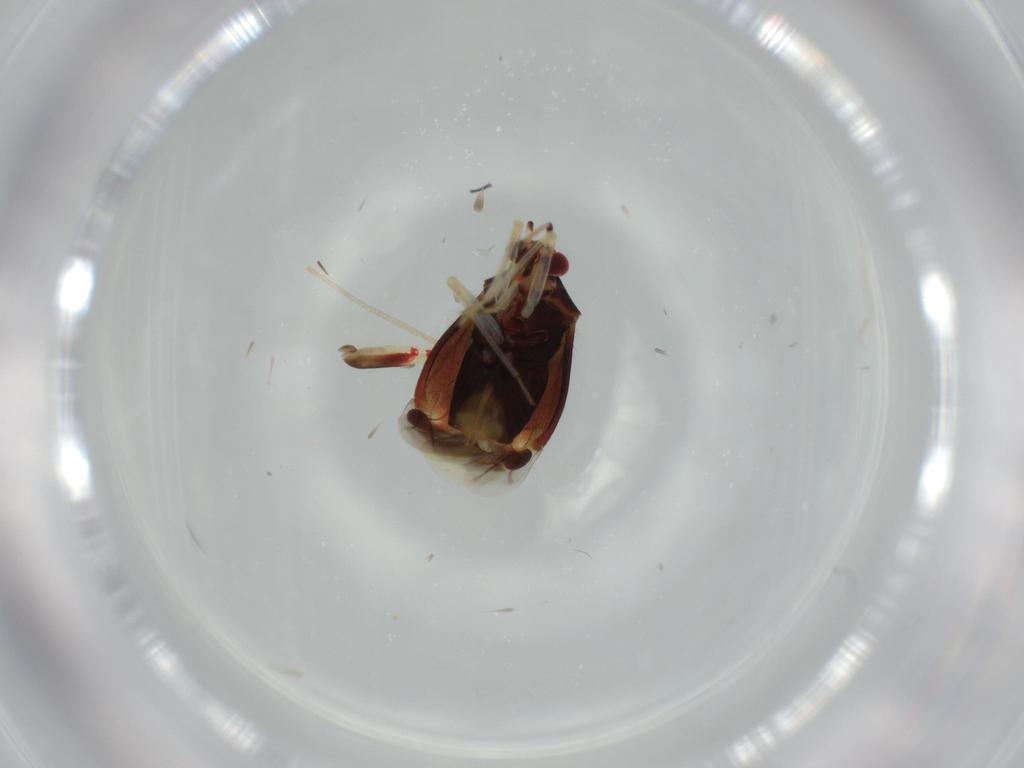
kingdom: Animalia
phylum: Arthropoda
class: Insecta
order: Hemiptera
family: Miridae
